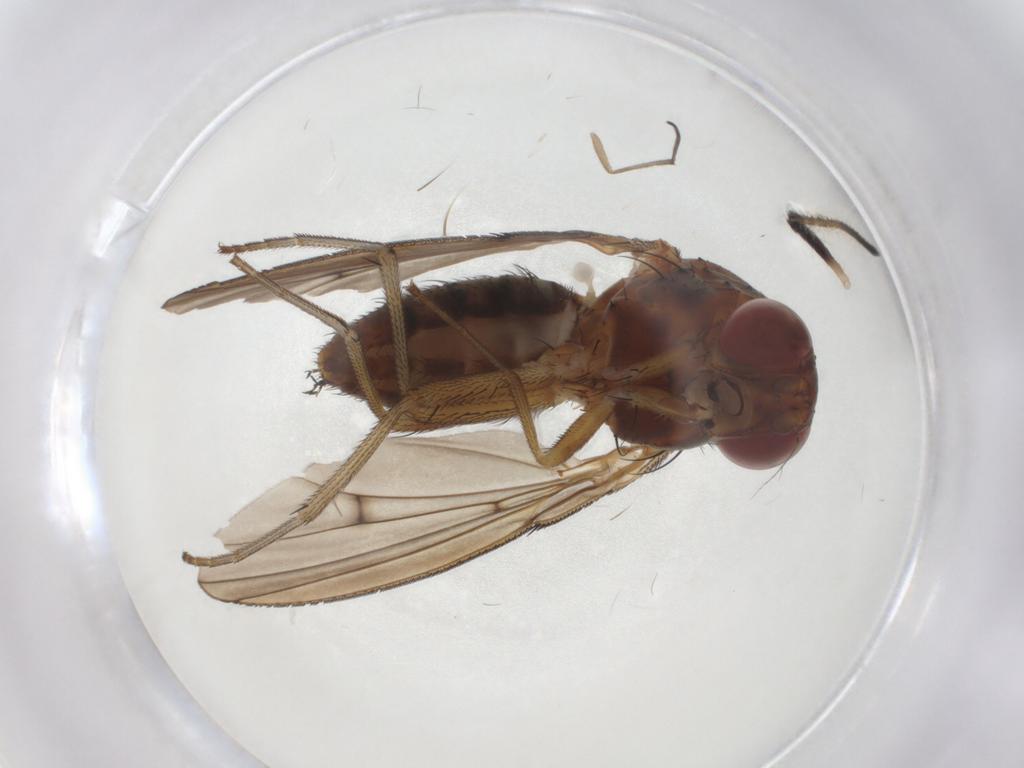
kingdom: Animalia
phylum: Arthropoda
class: Insecta
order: Diptera
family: Curtonotidae
